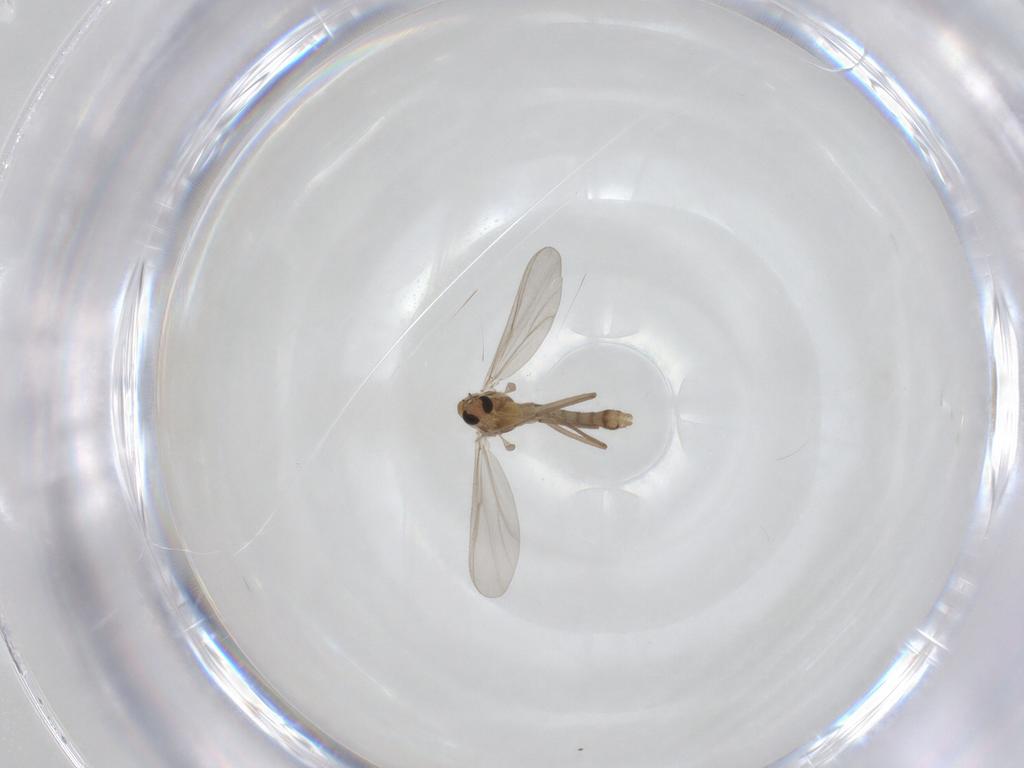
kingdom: Animalia
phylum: Arthropoda
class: Insecta
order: Diptera
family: Chironomidae
